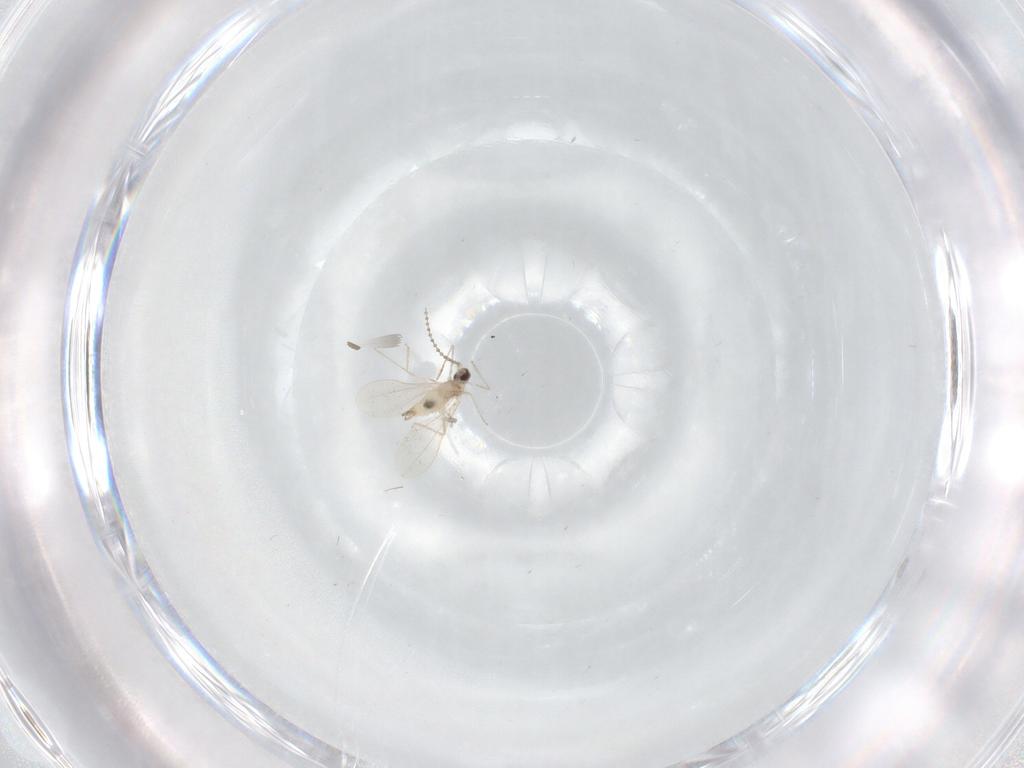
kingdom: Animalia
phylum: Arthropoda
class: Insecta
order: Diptera
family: Cecidomyiidae
